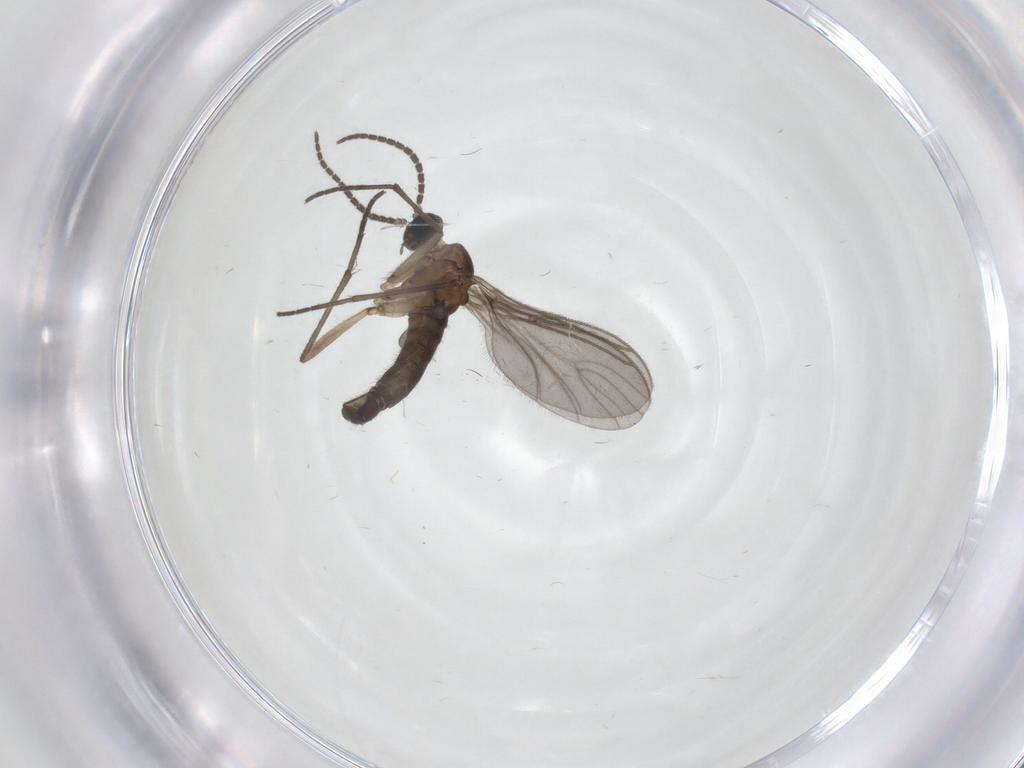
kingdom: Animalia
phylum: Arthropoda
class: Insecta
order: Diptera
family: Sciaridae
